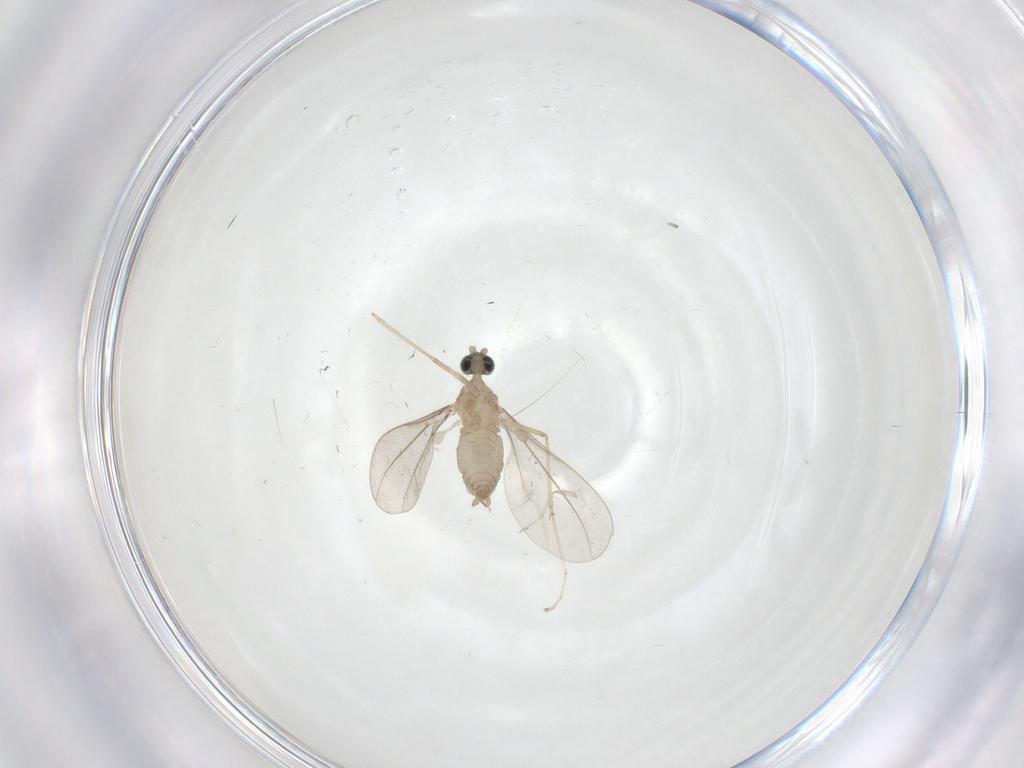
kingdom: Animalia
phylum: Arthropoda
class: Insecta
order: Diptera
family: Cecidomyiidae
